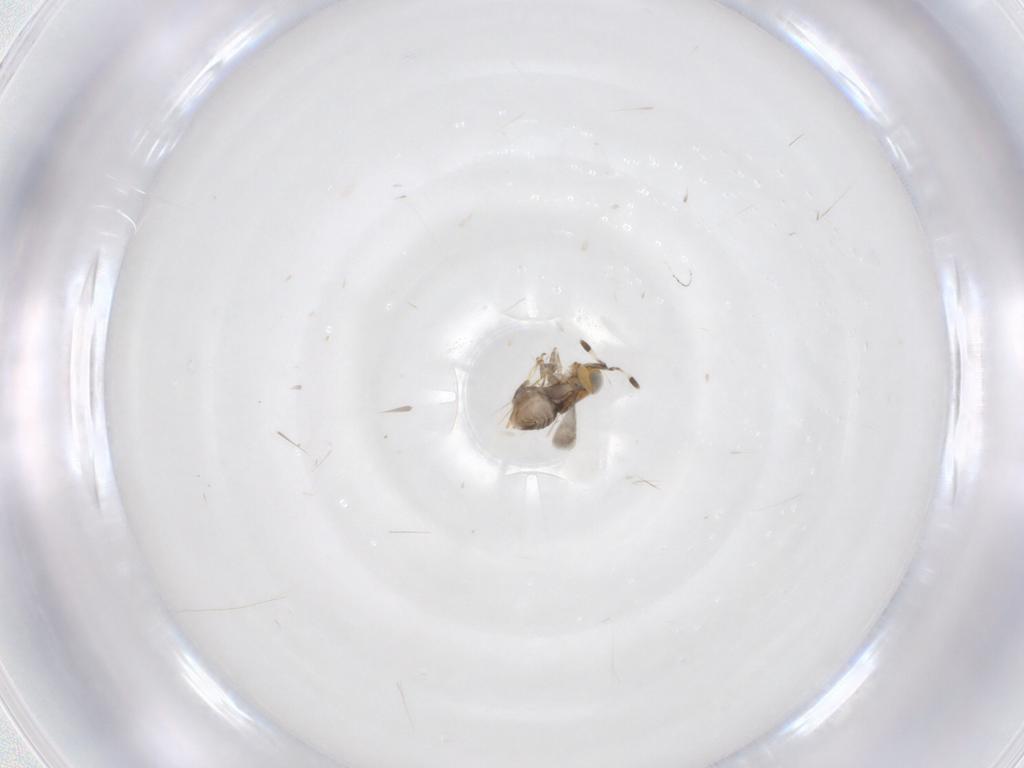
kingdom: Animalia
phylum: Arthropoda
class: Insecta
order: Hymenoptera
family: Eulophidae
